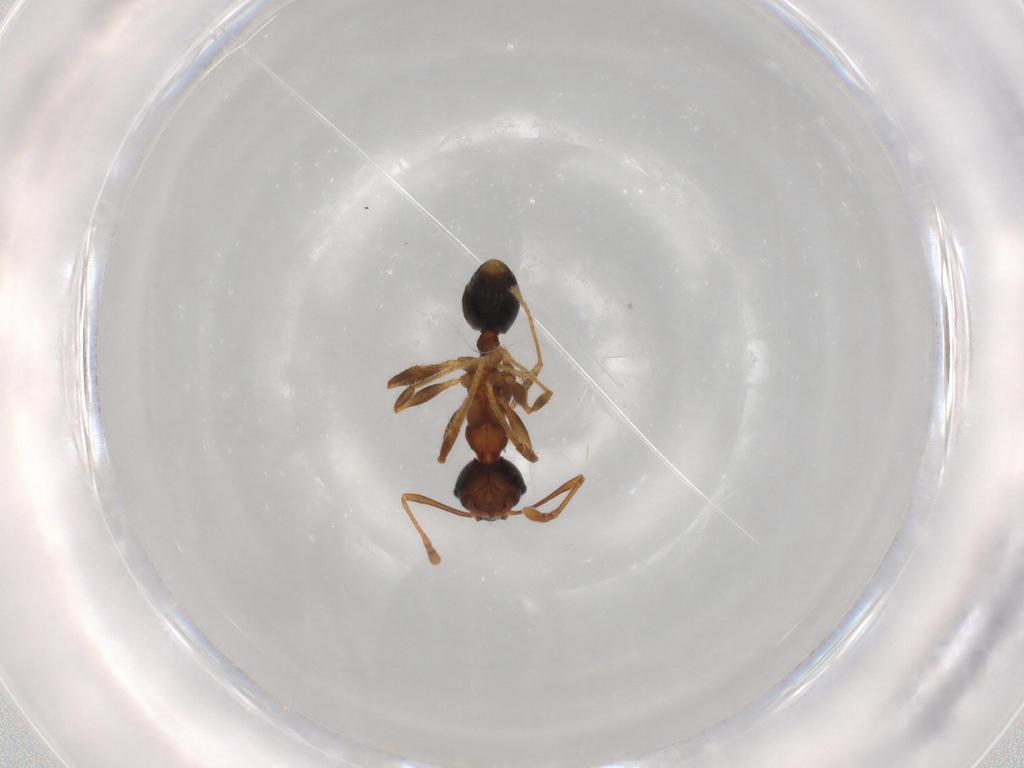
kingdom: Animalia
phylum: Arthropoda
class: Insecta
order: Hymenoptera
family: Formicidae
